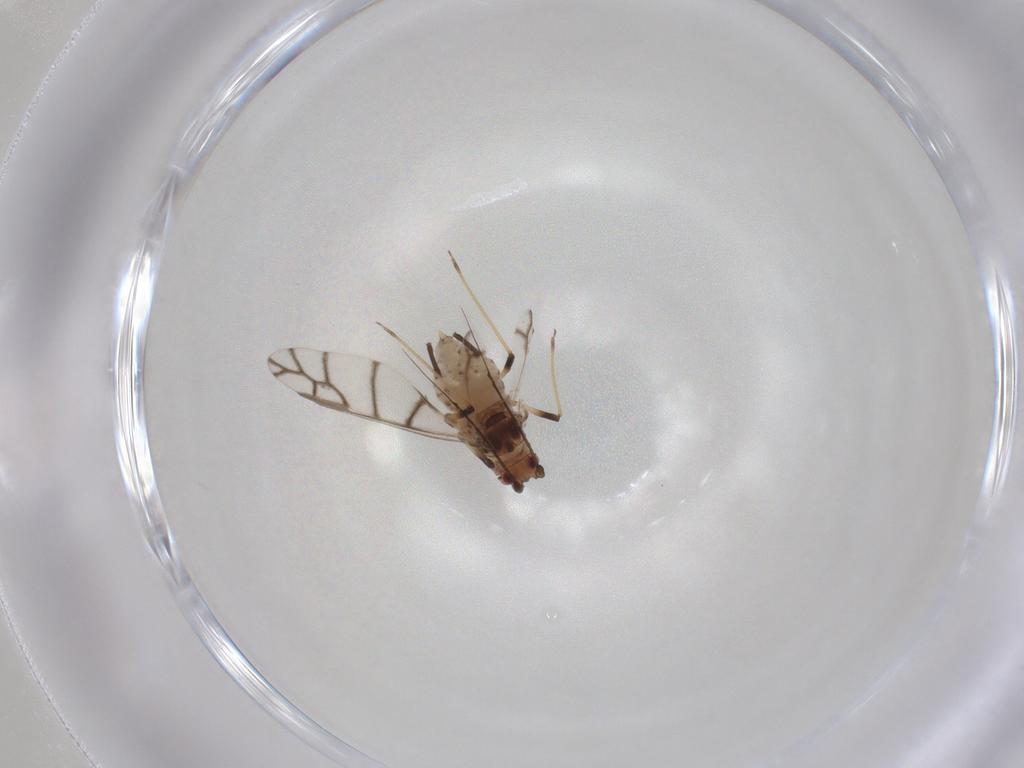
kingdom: Animalia
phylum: Arthropoda
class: Insecta
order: Hemiptera
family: Aphididae
